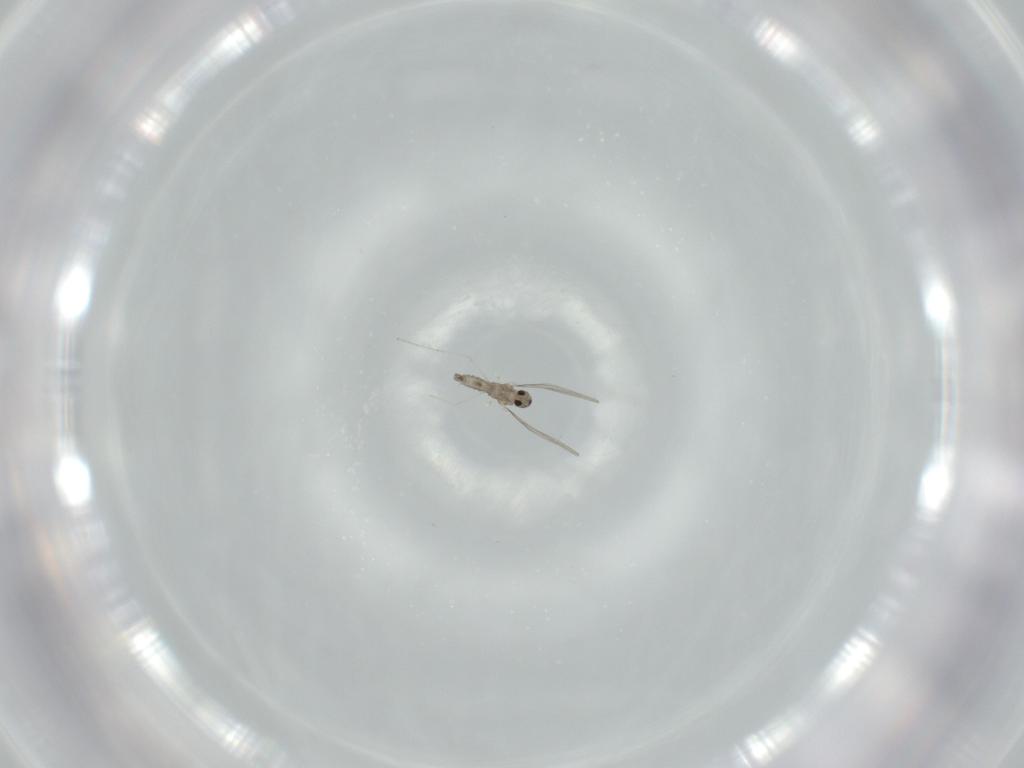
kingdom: Animalia
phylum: Arthropoda
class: Insecta
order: Diptera
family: Cecidomyiidae
